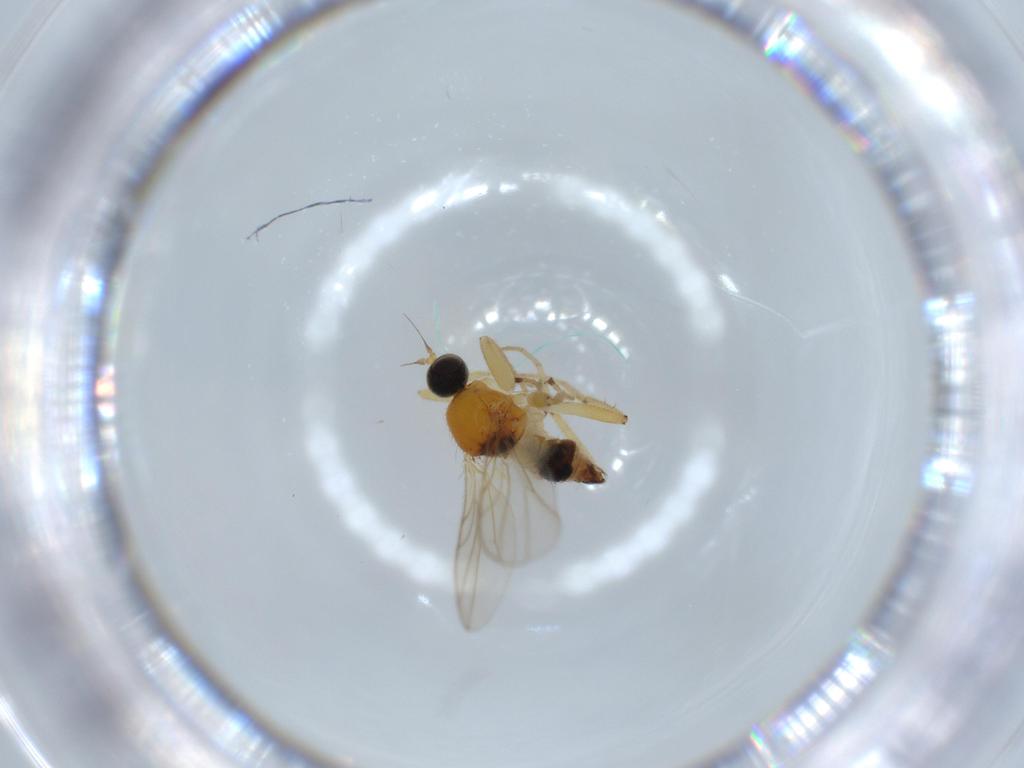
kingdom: Animalia
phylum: Arthropoda
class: Insecta
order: Diptera
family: Hybotidae
